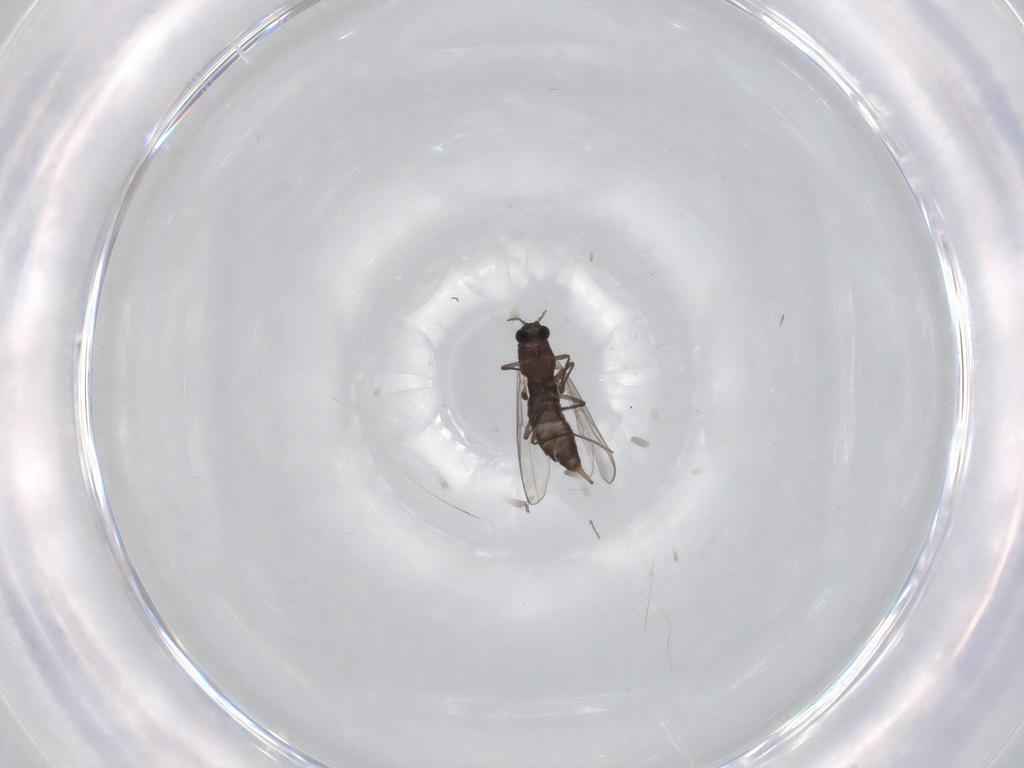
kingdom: Animalia
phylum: Arthropoda
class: Insecta
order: Diptera
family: Chironomidae
